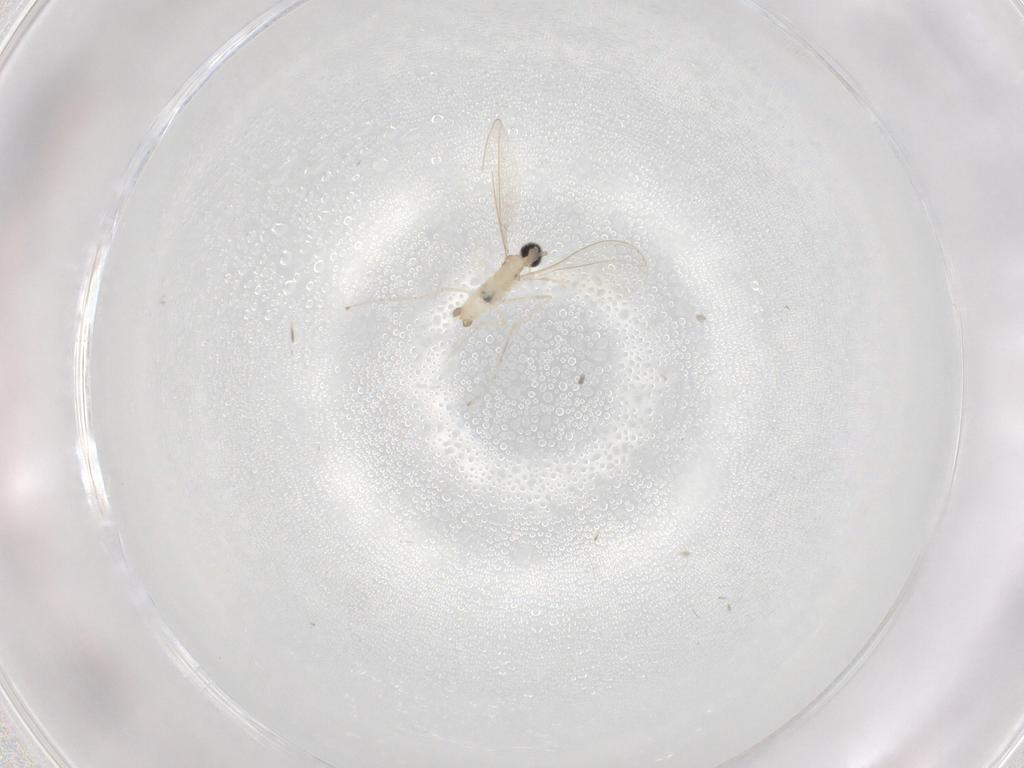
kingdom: Animalia
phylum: Arthropoda
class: Insecta
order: Diptera
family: Cecidomyiidae
